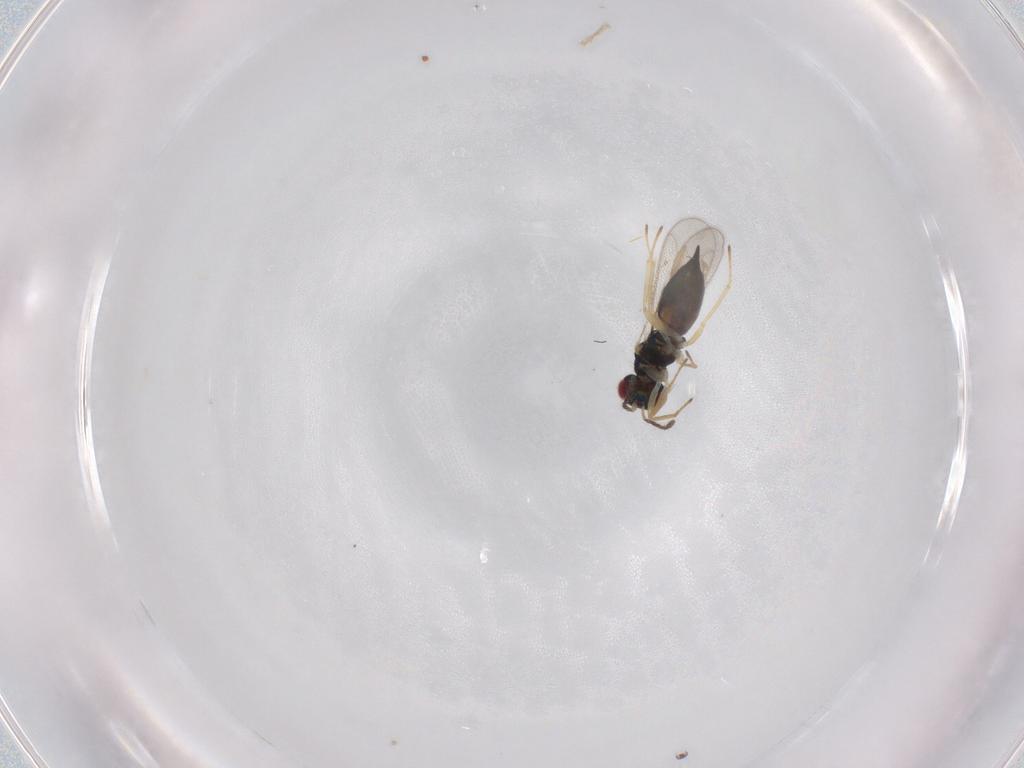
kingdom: Animalia
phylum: Arthropoda
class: Insecta
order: Hymenoptera
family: Eulophidae
